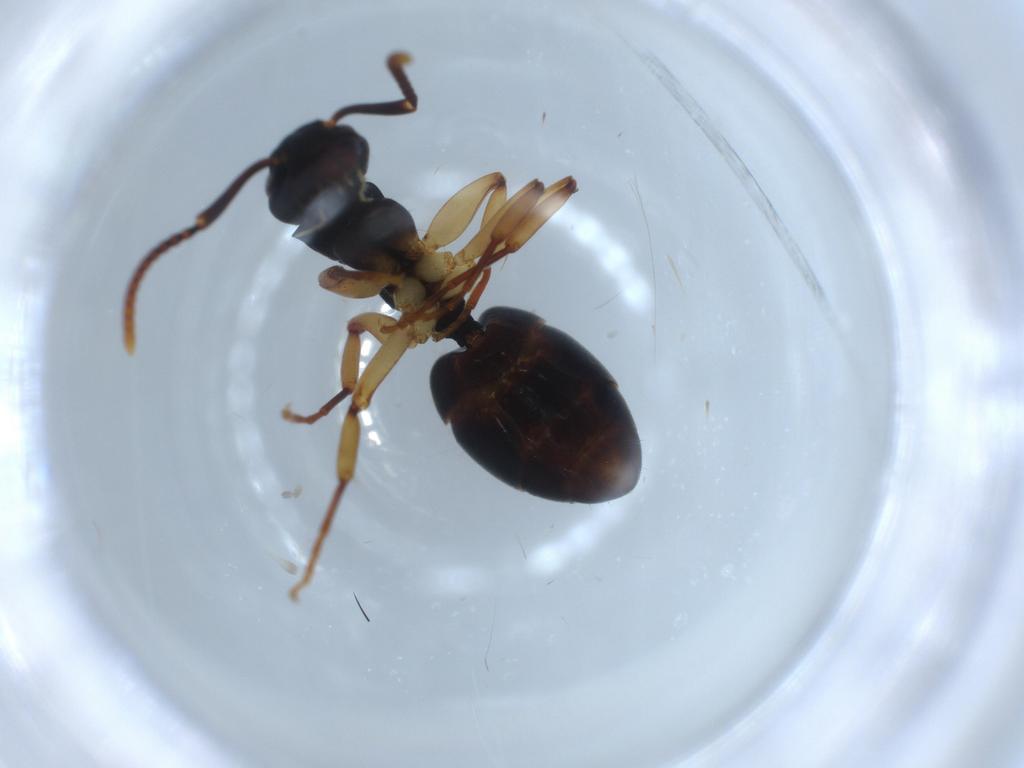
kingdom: Animalia
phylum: Arthropoda
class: Insecta
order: Hymenoptera
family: Formicidae
